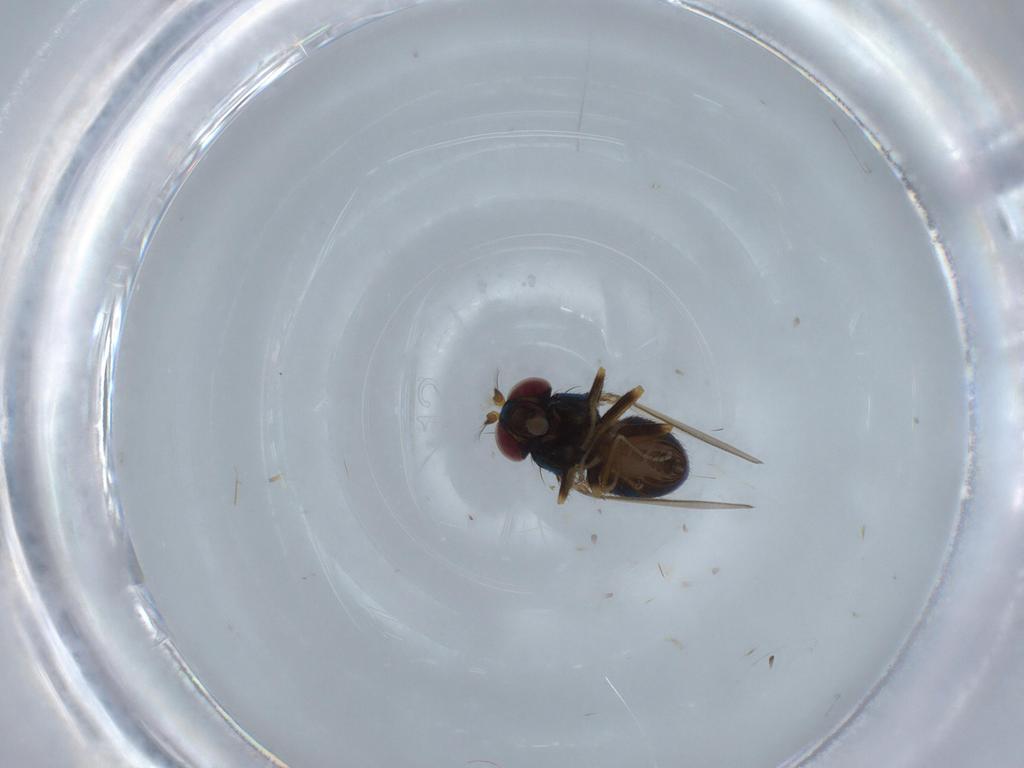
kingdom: Animalia
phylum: Arthropoda
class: Insecta
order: Diptera
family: Ephydridae
